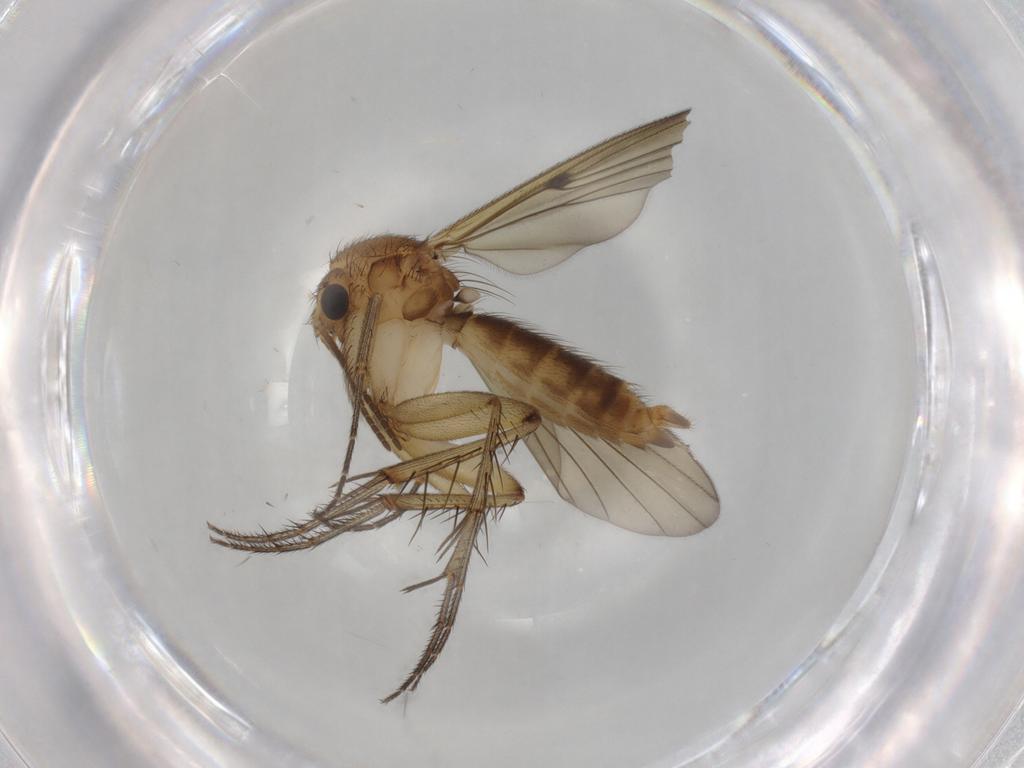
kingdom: Animalia
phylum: Arthropoda
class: Insecta
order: Diptera
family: Mycetophilidae
